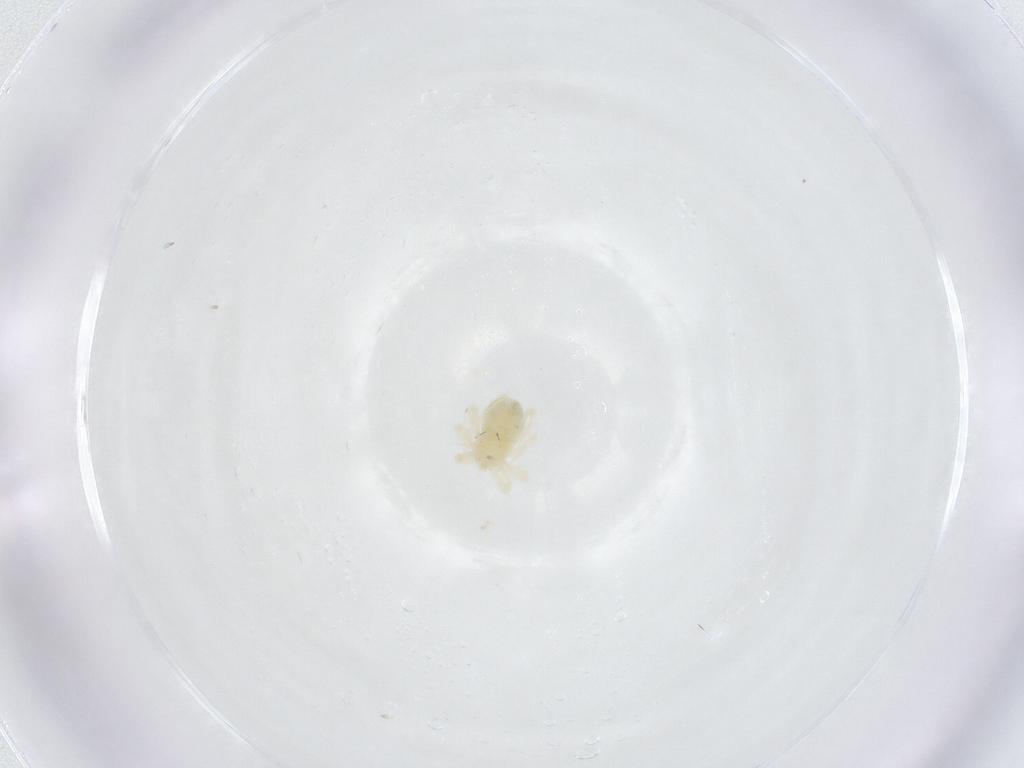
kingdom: Animalia
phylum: Arthropoda
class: Arachnida
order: Trombidiformes
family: Anystidae
